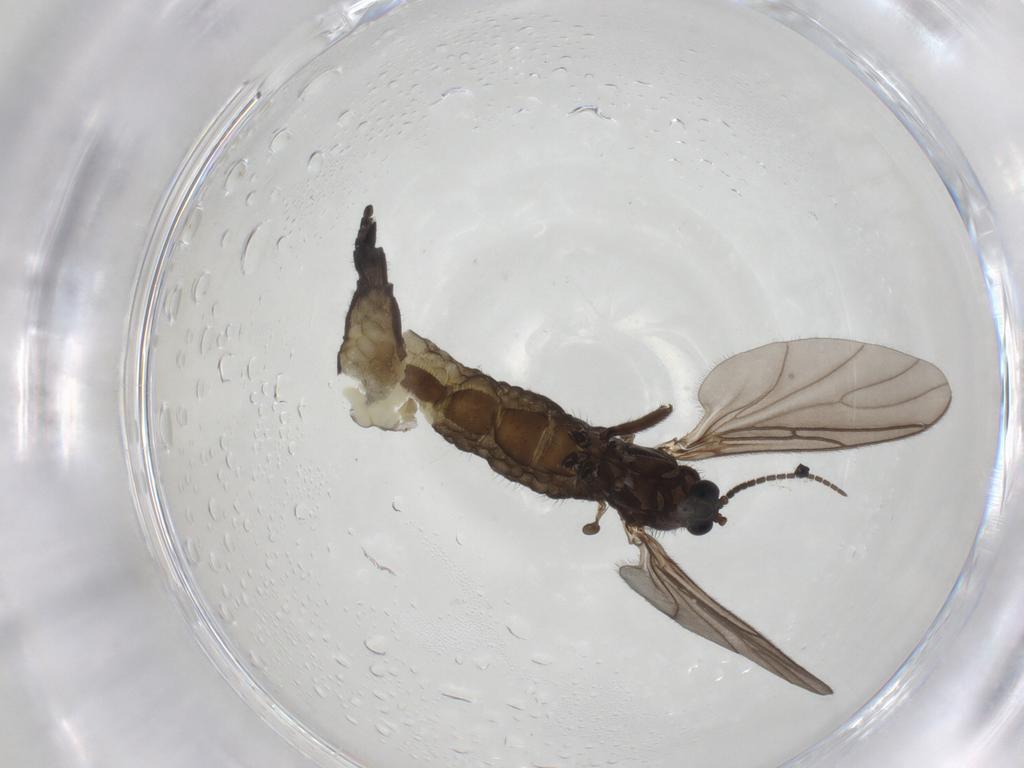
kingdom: Animalia
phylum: Arthropoda
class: Insecta
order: Diptera
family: Sciaridae
